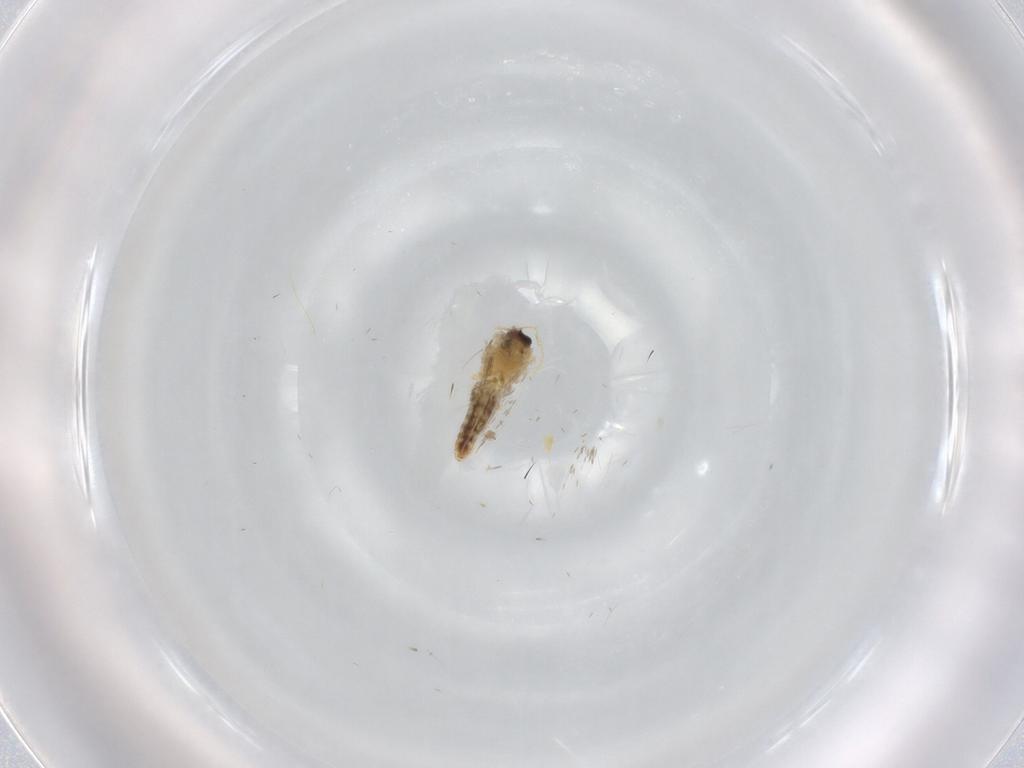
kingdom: Animalia
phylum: Arthropoda
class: Insecta
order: Lepidoptera
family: Nepticulidae
